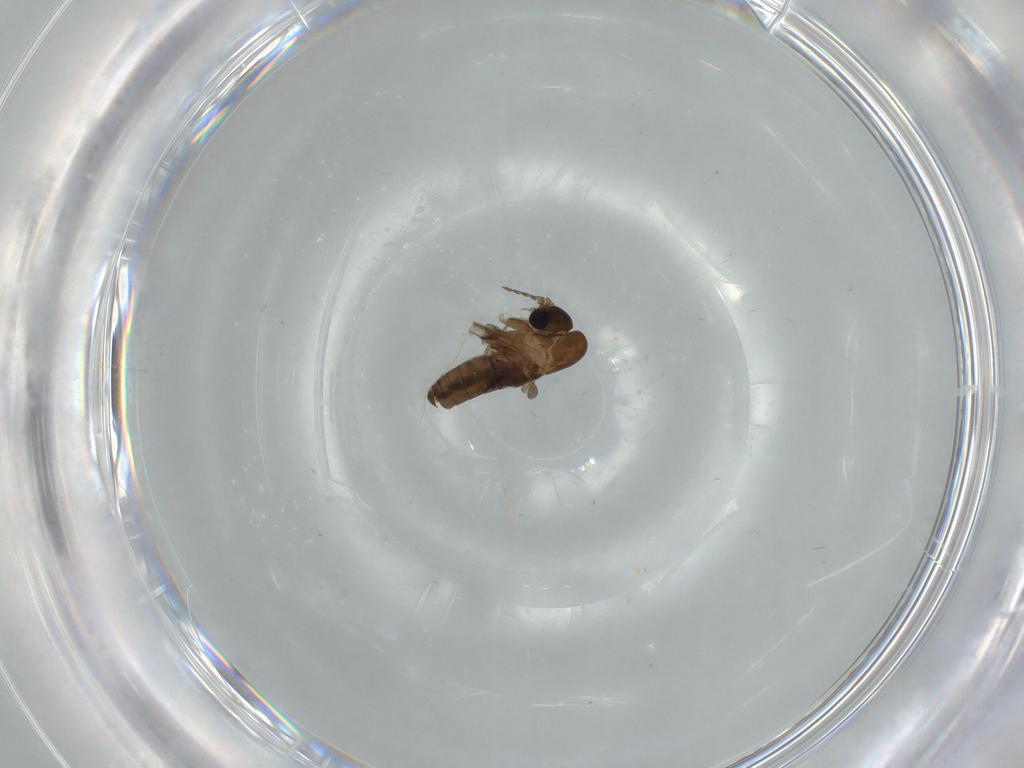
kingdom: Animalia
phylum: Arthropoda
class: Insecta
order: Diptera
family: Psychodidae
